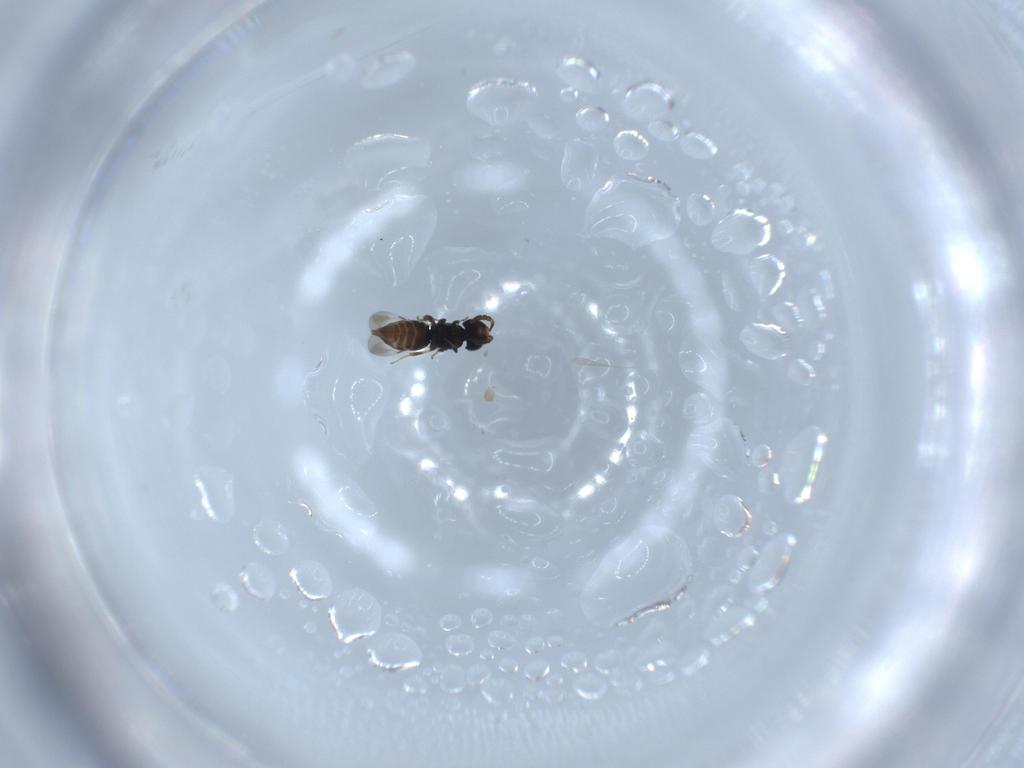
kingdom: Animalia
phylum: Arthropoda
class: Insecta
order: Hymenoptera
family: Ceraphronidae
